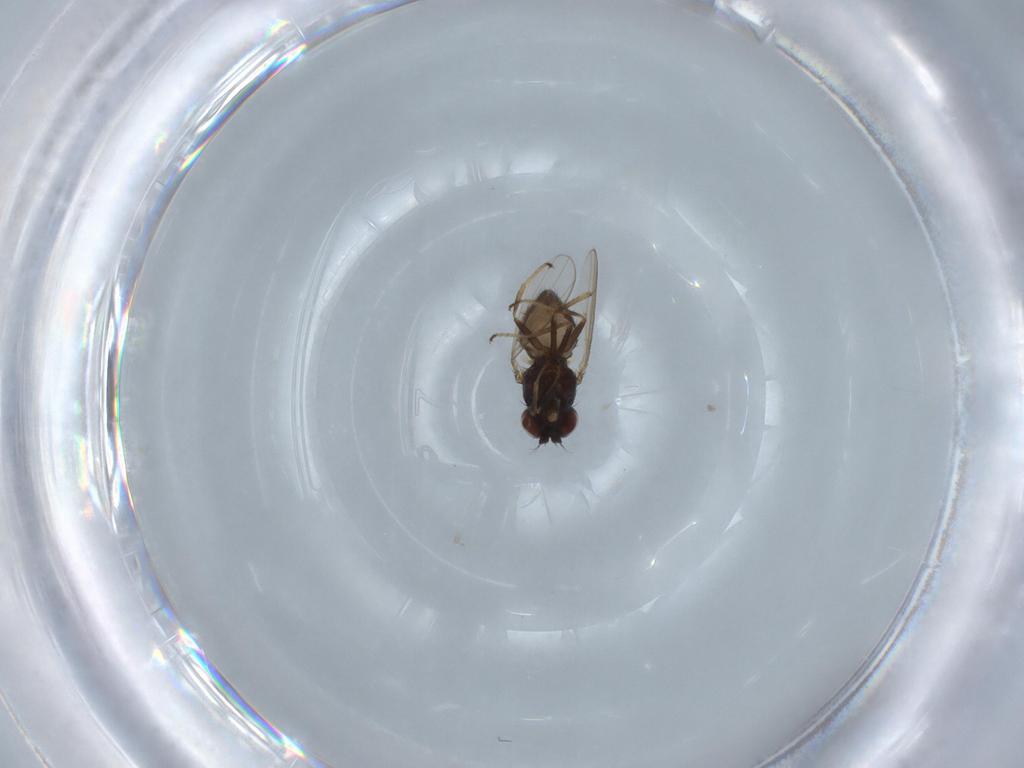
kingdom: Animalia
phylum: Arthropoda
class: Insecta
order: Diptera
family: Ephydridae
